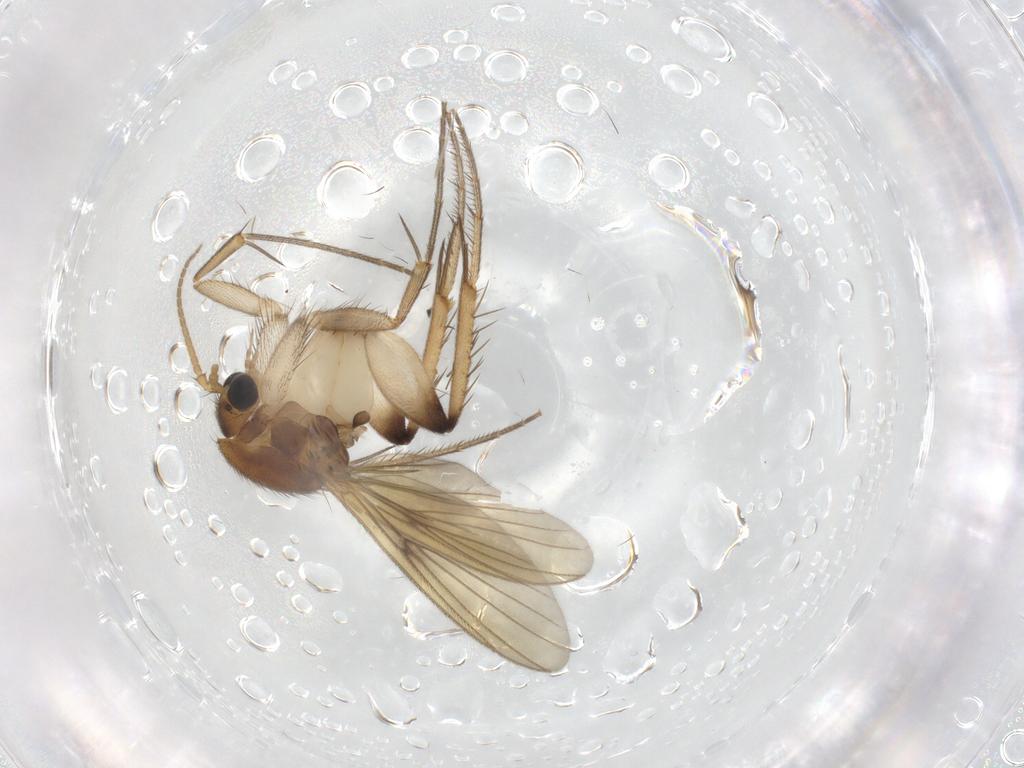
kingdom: Animalia
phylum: Arthropoda
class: Insecta
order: Diptera
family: Mycetophilidae
